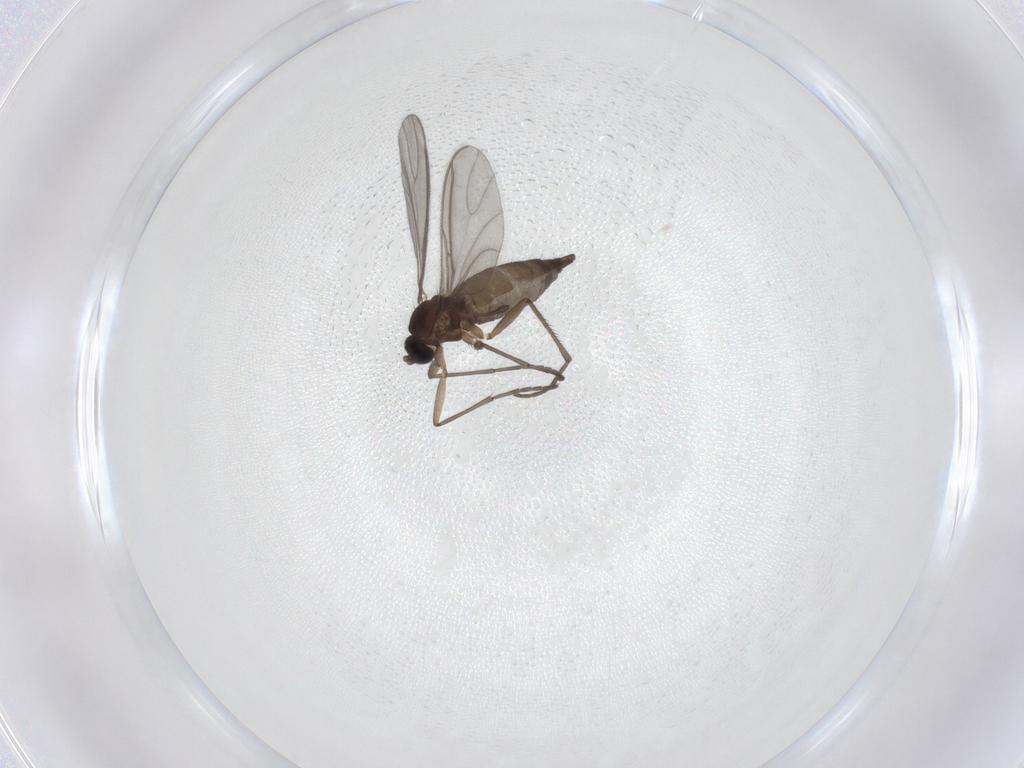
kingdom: Animalia
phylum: Arthropoda
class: Insecta
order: Diptera
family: Sciaridae
